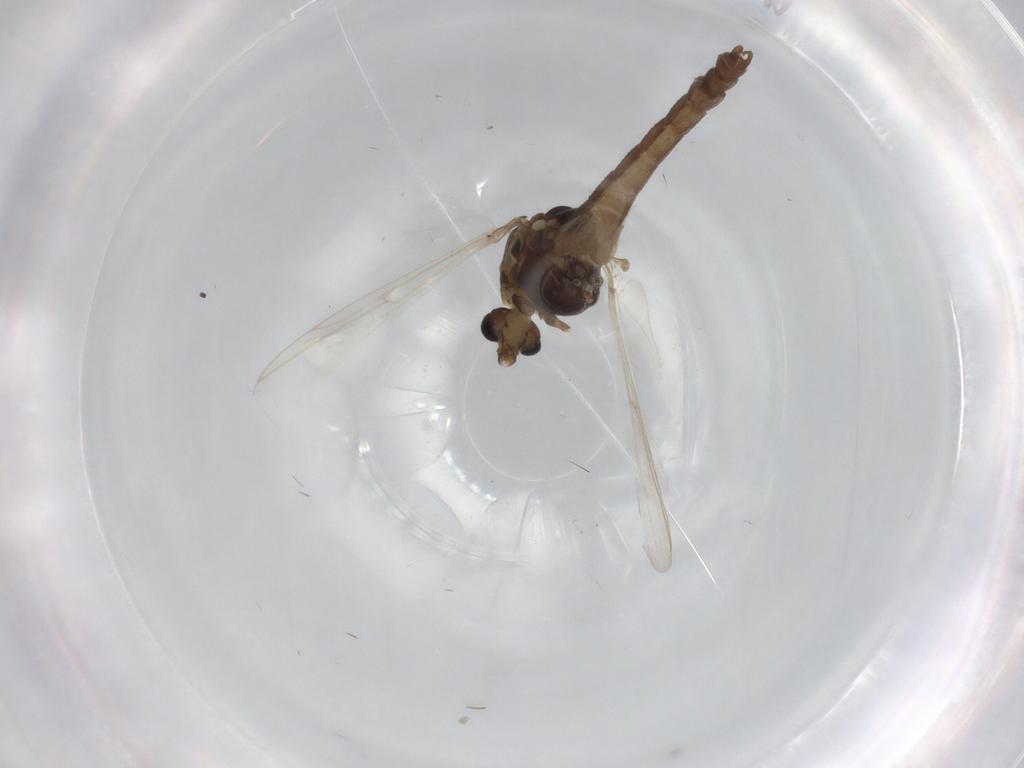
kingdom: Animalia
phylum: Arthropoda
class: Insecta
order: Diptera
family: Chironomidae
